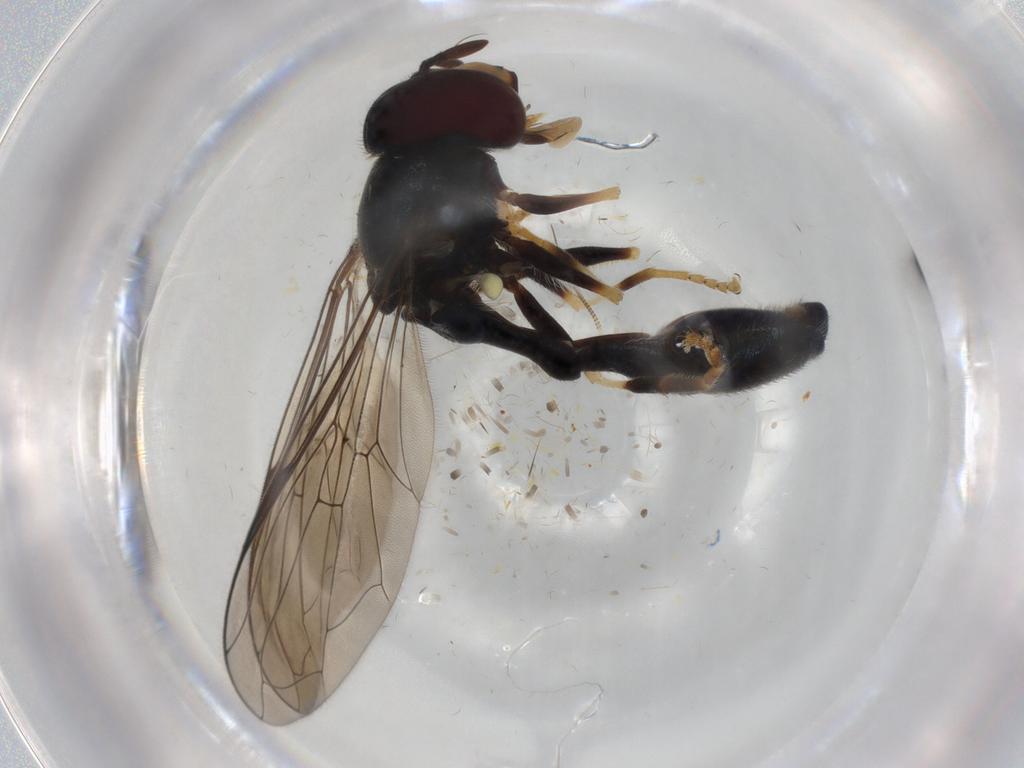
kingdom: Animalia
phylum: Arthropoda
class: Insecta
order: Diptera
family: Syrphidae
